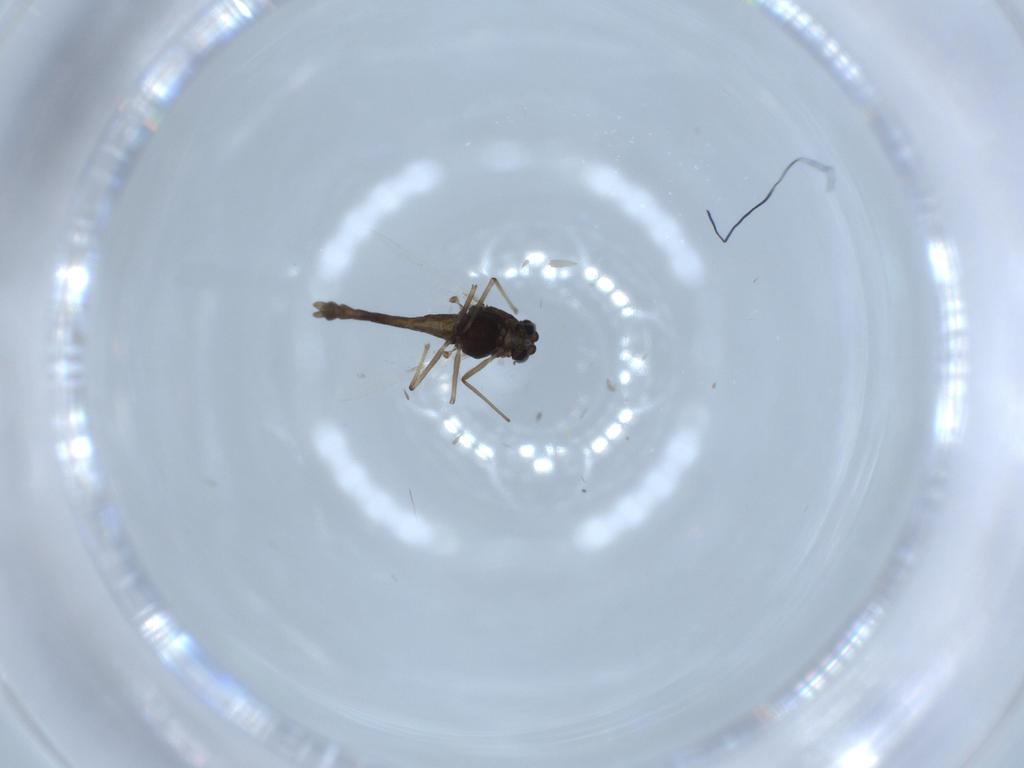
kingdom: Animalia
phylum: Arthropoda
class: Insecta
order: Diptera
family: Chironomidae
